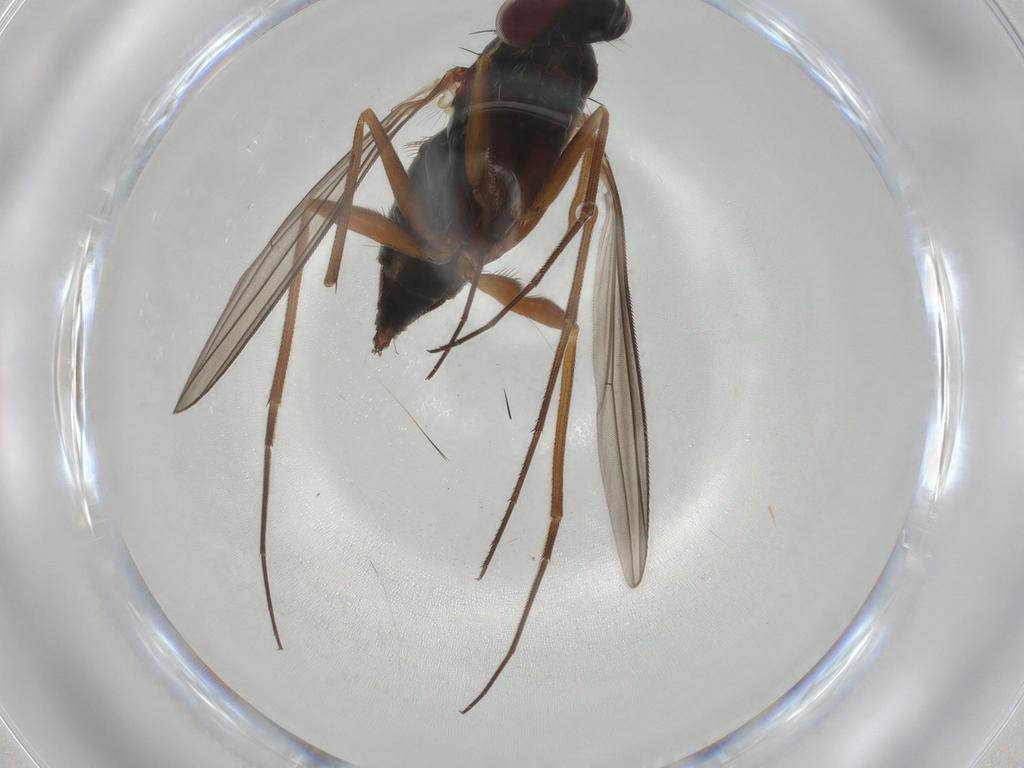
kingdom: Animalia
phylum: Arthropoda
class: Insecta
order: Diptera
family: Dolichopodidae
